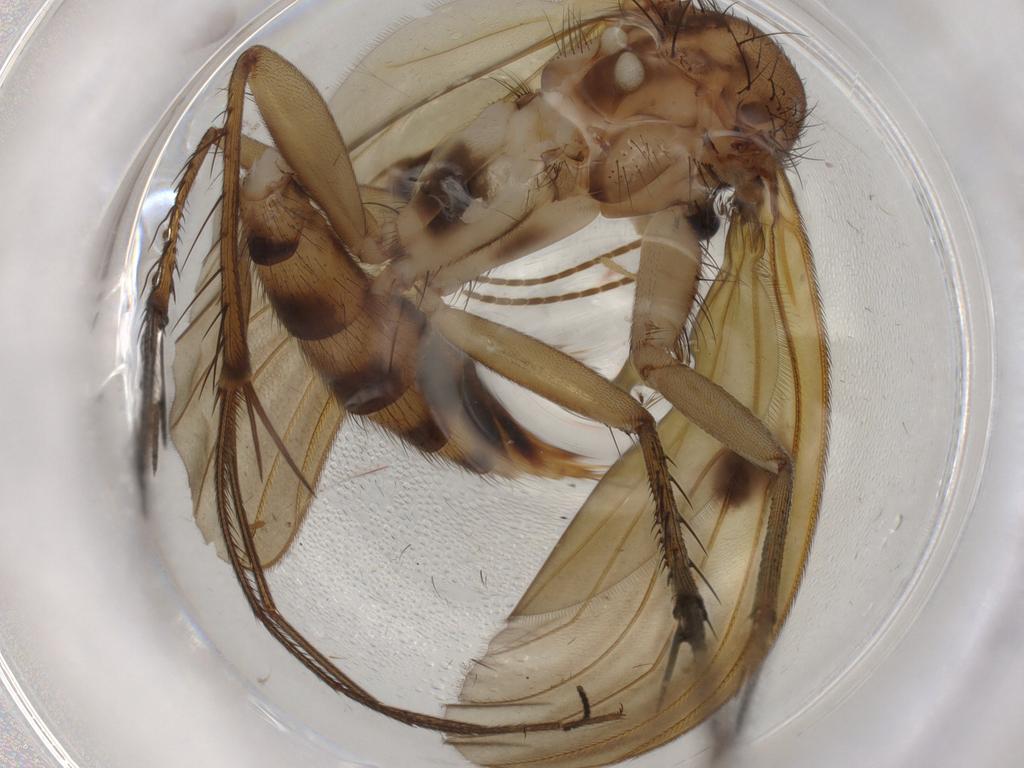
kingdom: Animalia
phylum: Arthropoda
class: Insecta
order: Diptera
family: Mycetophilidae
